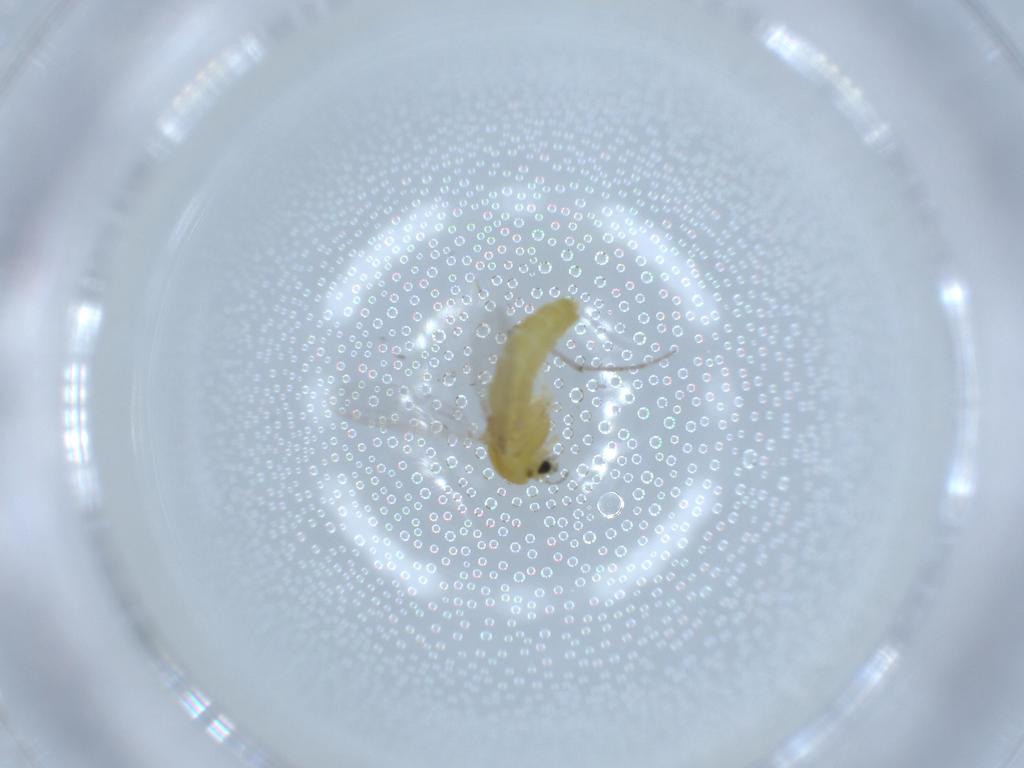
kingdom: Animalia
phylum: Arthropoda
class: Insecta
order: Diptera
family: Chironomidae
